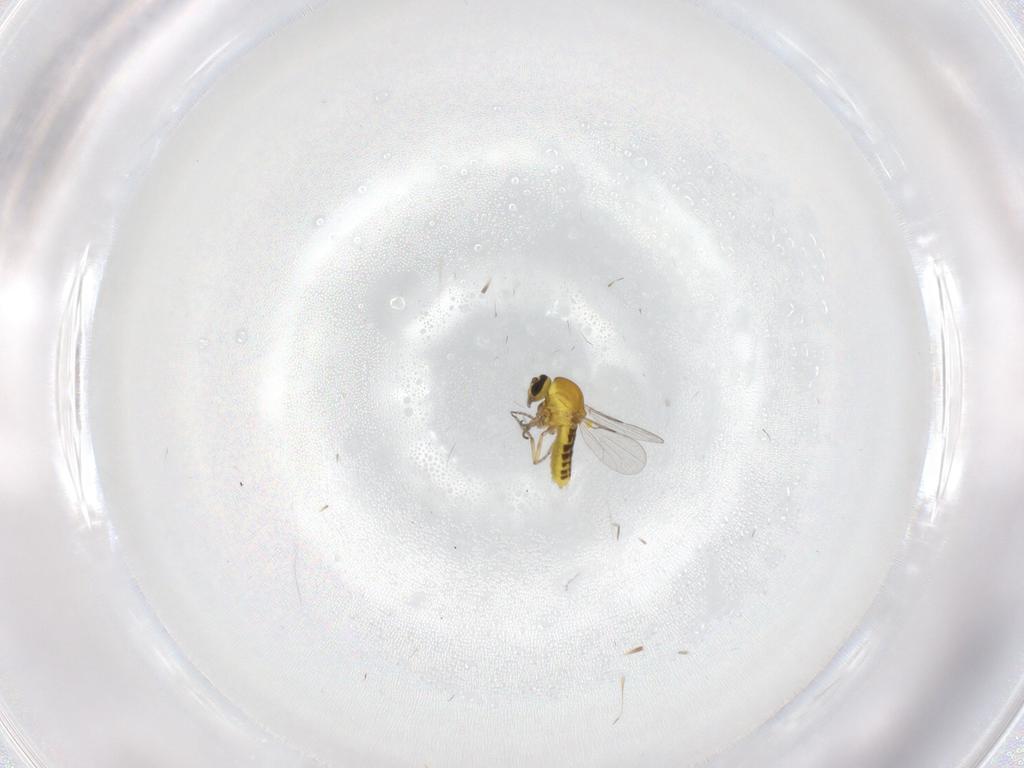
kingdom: Animalia
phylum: Arthropoda
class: Insecta
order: Diptera
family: Ceratopogonidae
